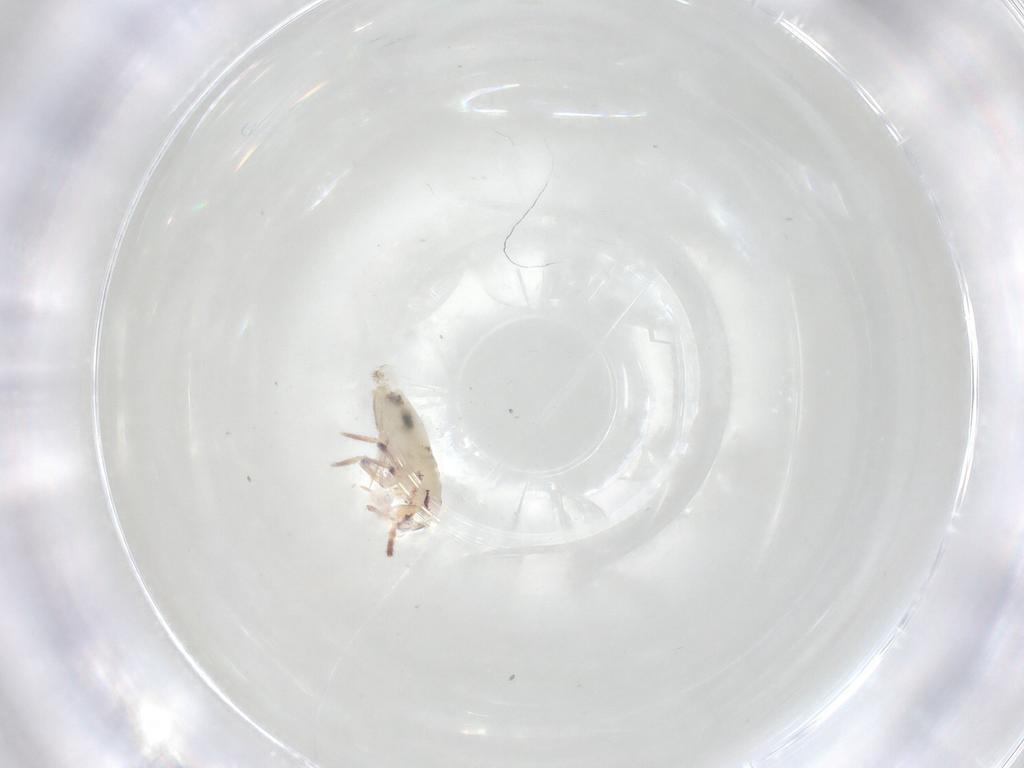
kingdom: Animalia
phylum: Arthropoda
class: Collembola
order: Entomobryomorpha
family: Entomobryidae
